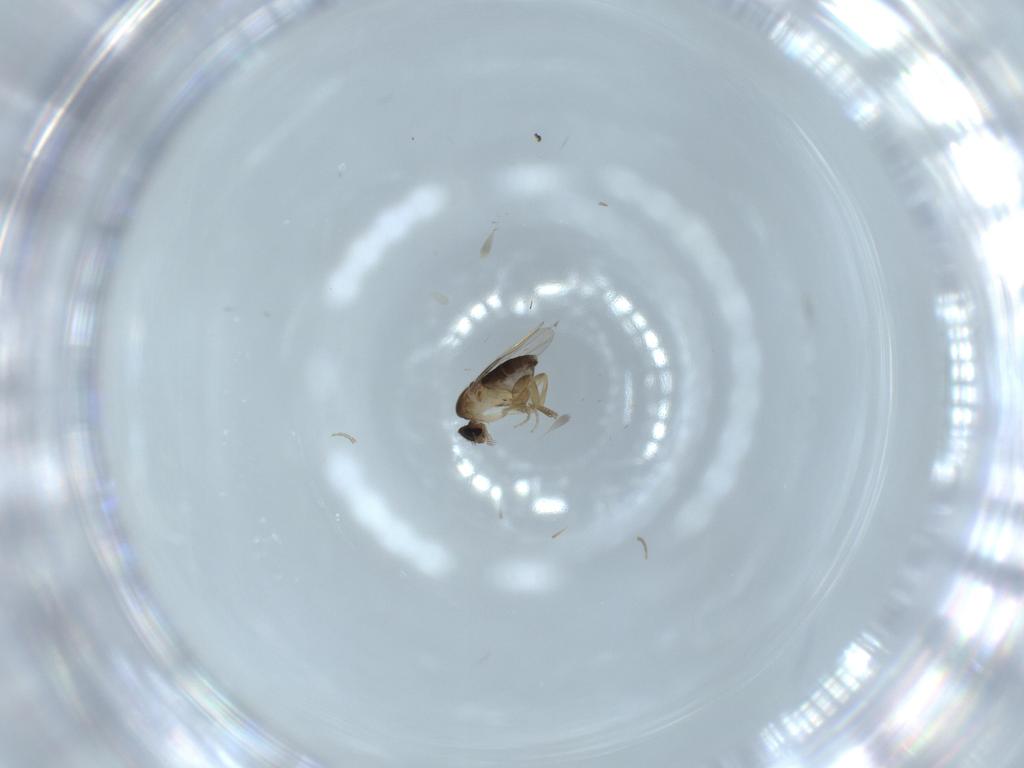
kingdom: Animalia
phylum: Arthropoda
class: Insecta
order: Diptera
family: Phoridae
